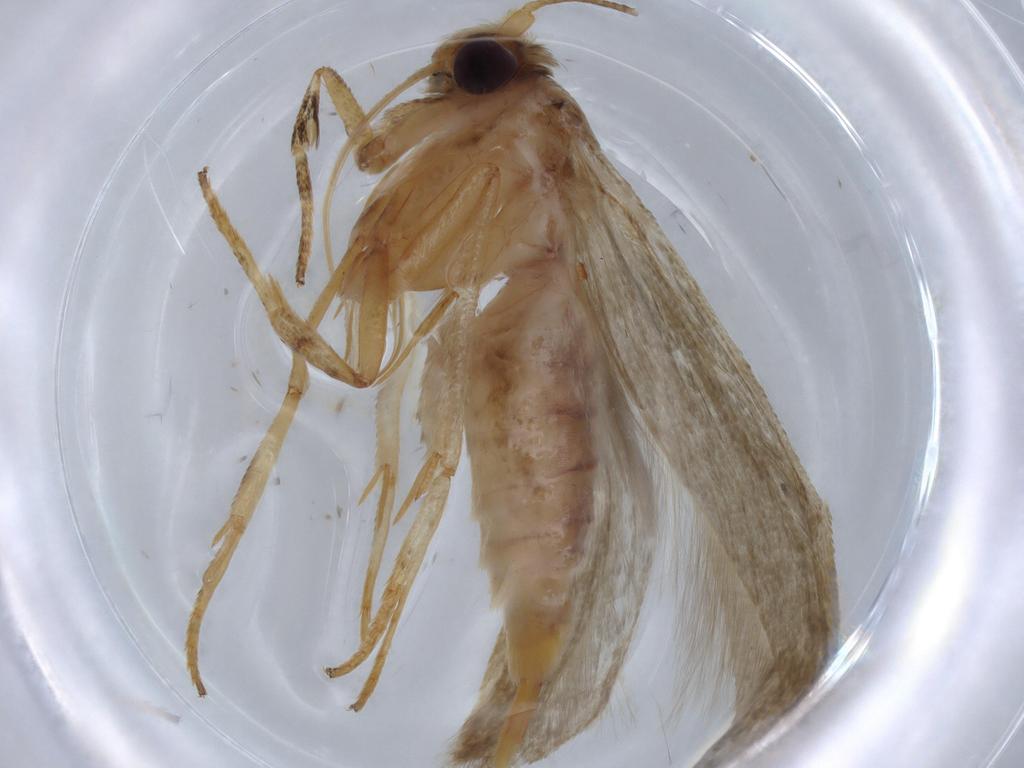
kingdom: Animalia
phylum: Arthropoda
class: Insecta
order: Lepidoptera
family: Blastobasidae
